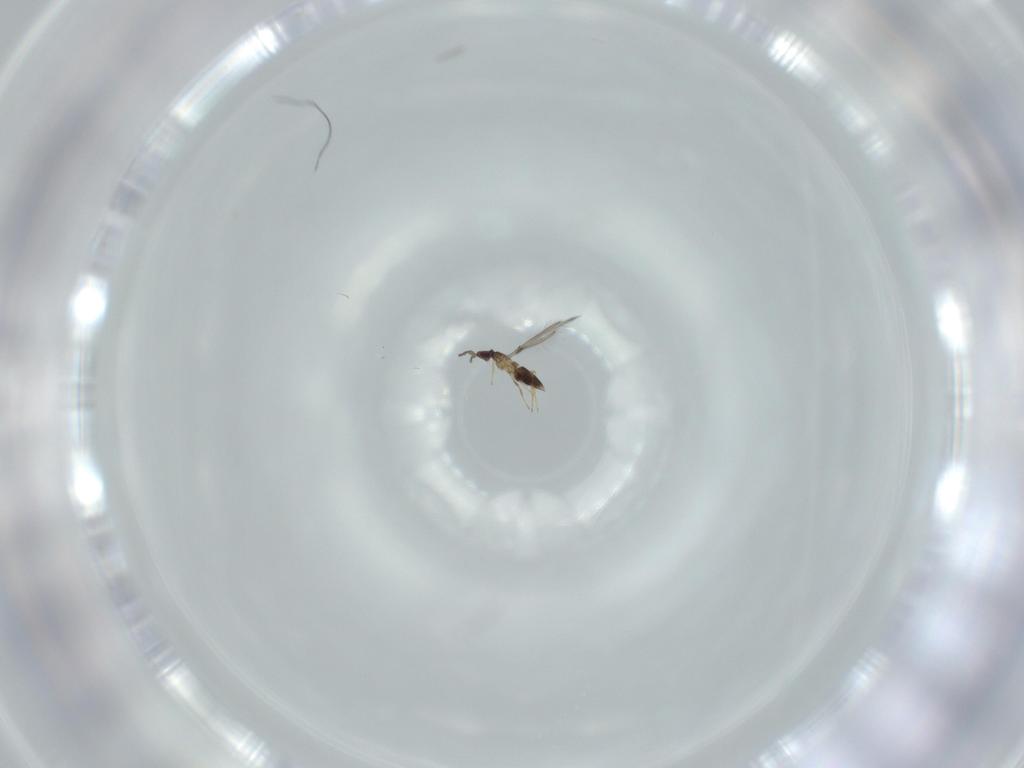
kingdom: Animalia
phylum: Arthropoda
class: Insecta
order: Hymenoptera
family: Mymaridae
